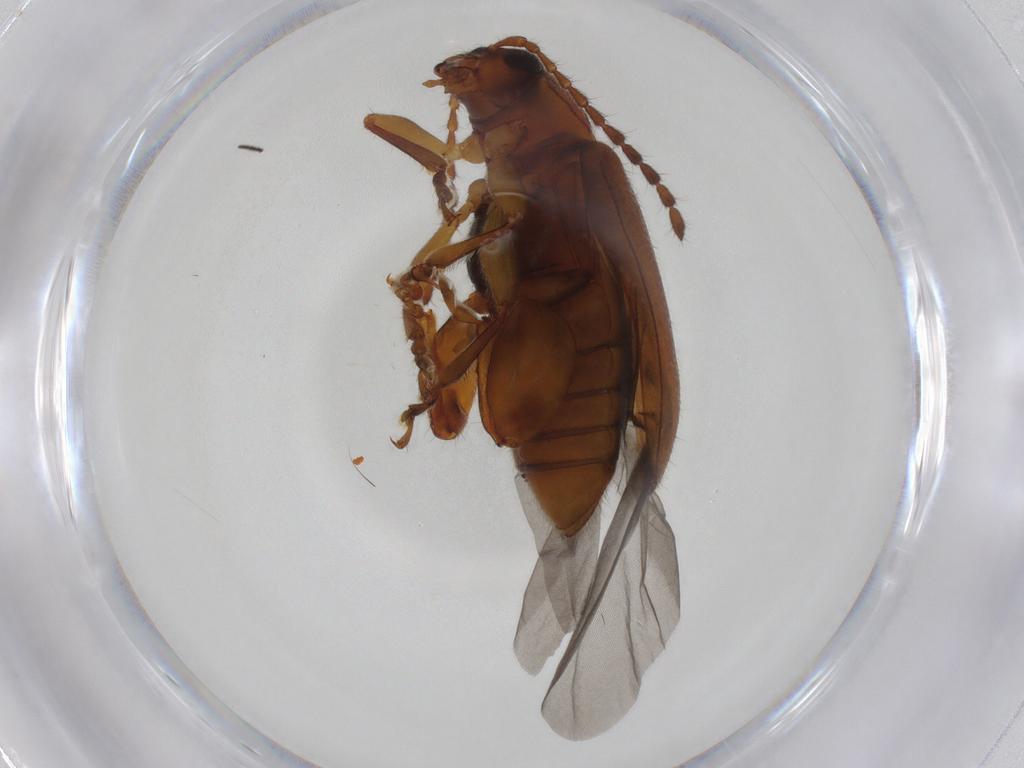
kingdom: Animalia
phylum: Arthropoda
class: Insecta
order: Coleoptera
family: Chrysomelidae
